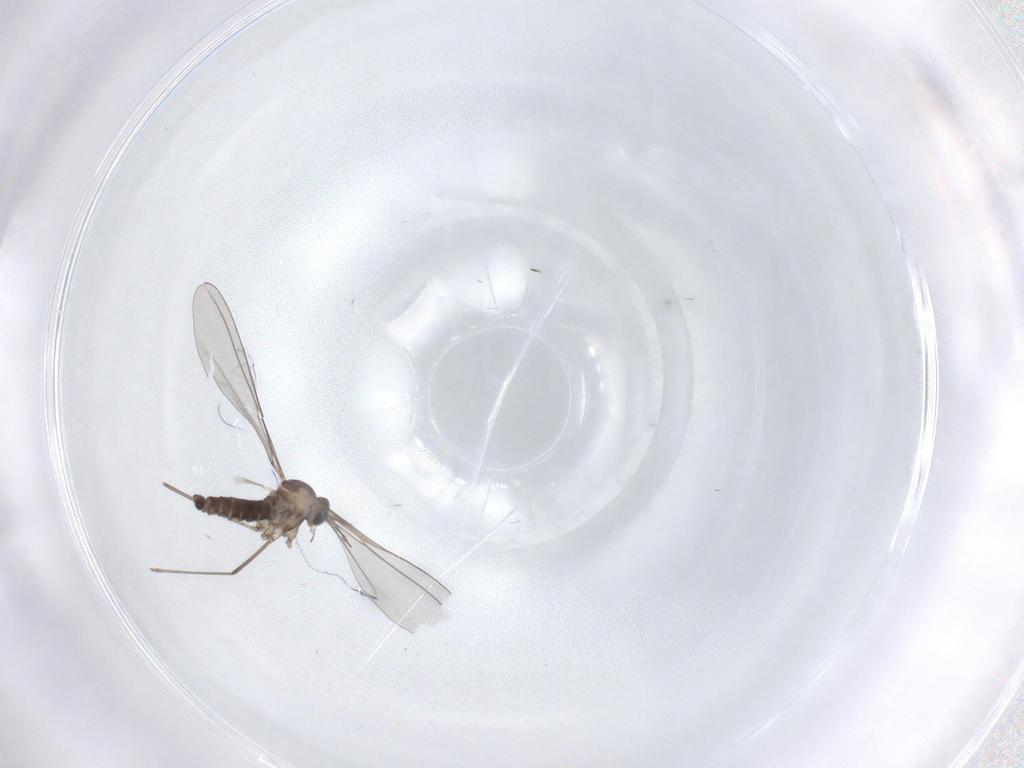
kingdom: Animalia
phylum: Arthropoda
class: Insecta
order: Diptera
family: Cecidomyiidae
